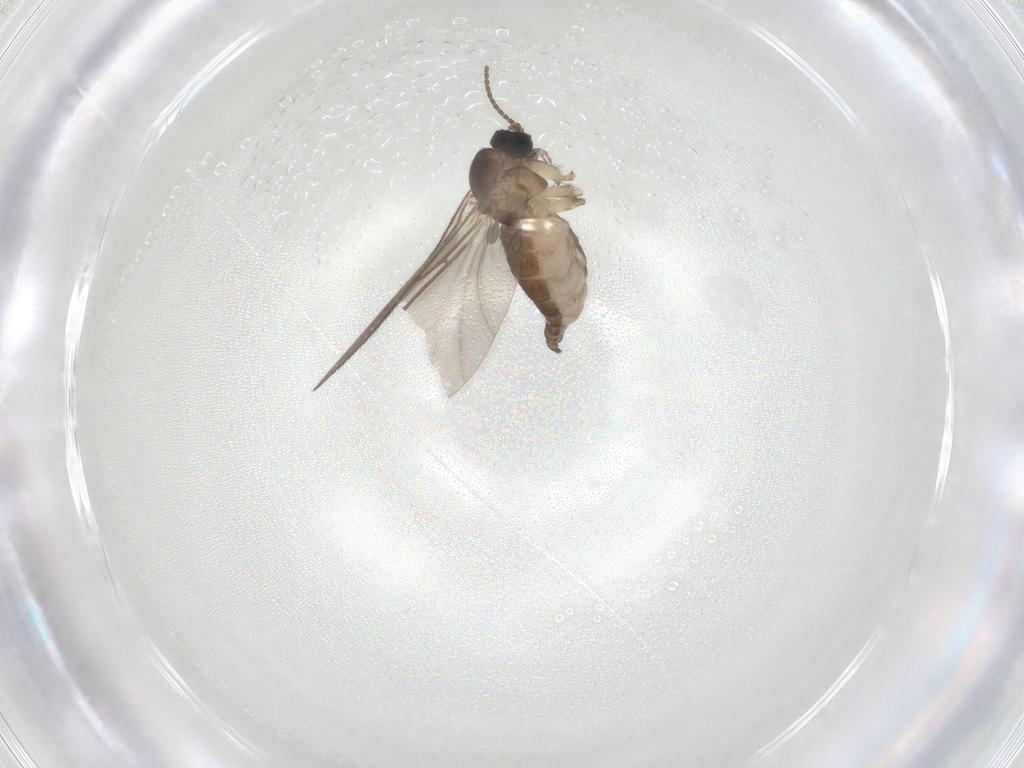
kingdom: Animalia
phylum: Arthropoda
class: Insecta
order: Diptera
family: Sciaridae
